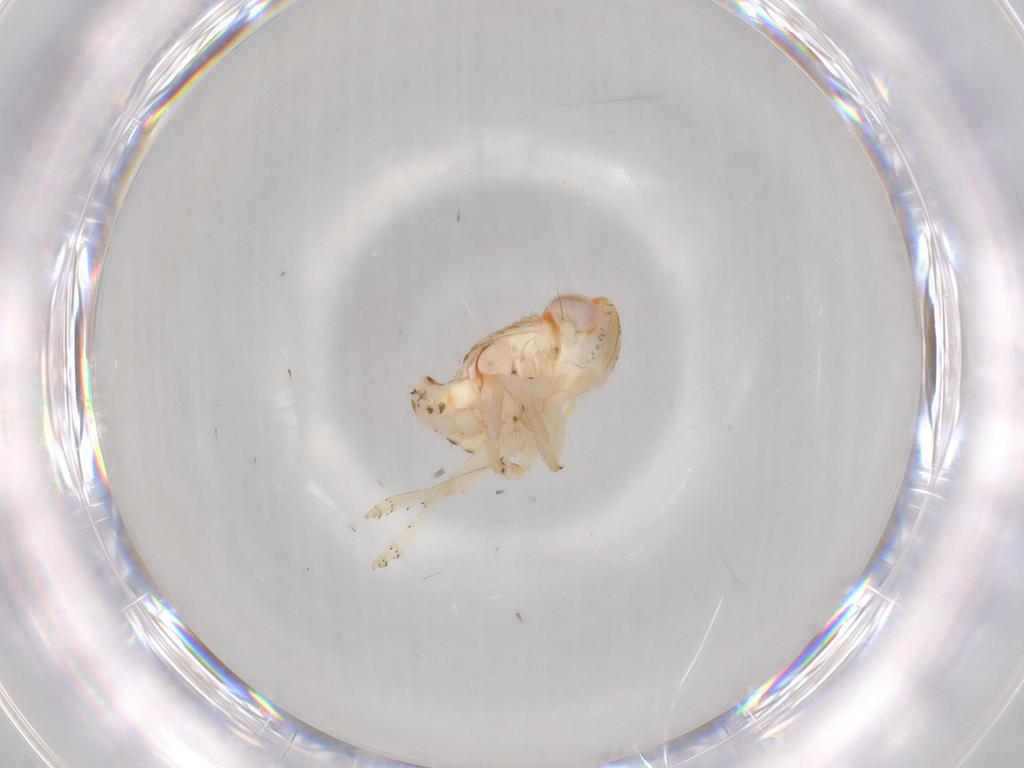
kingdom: Animalia
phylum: Arthropoda
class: Insecta
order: Hemiptera
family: Nogodinidae
